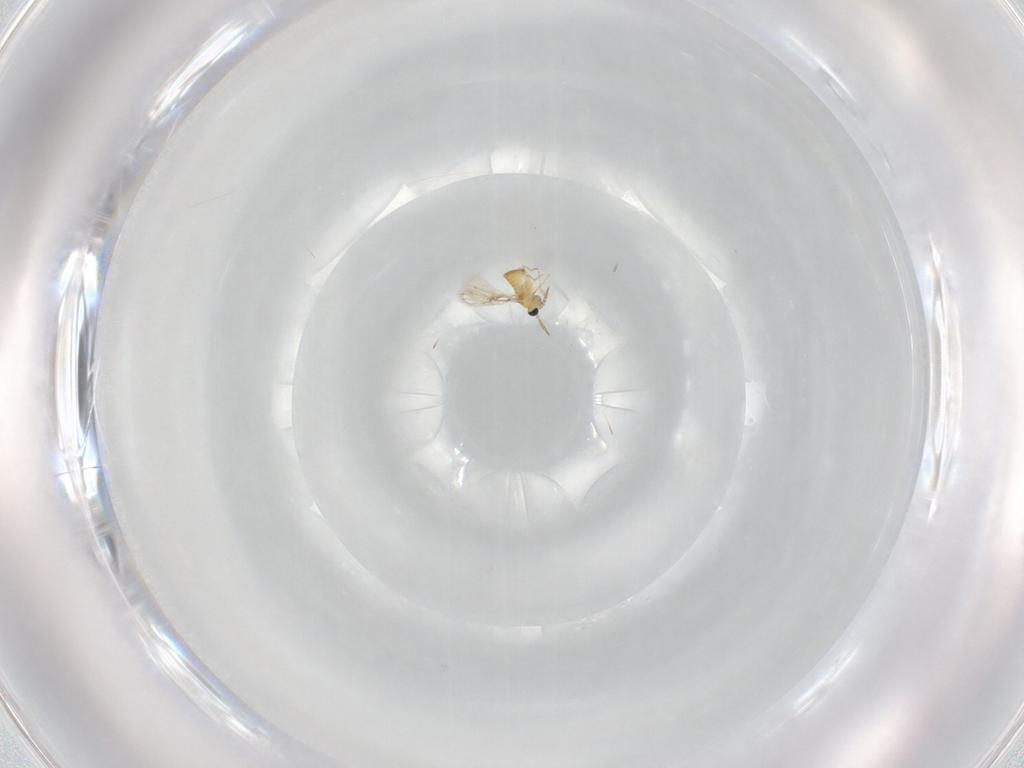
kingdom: Animalia
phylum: Arthropoda
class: Insecta
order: Hymenoptera
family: Trichogrammatidae
